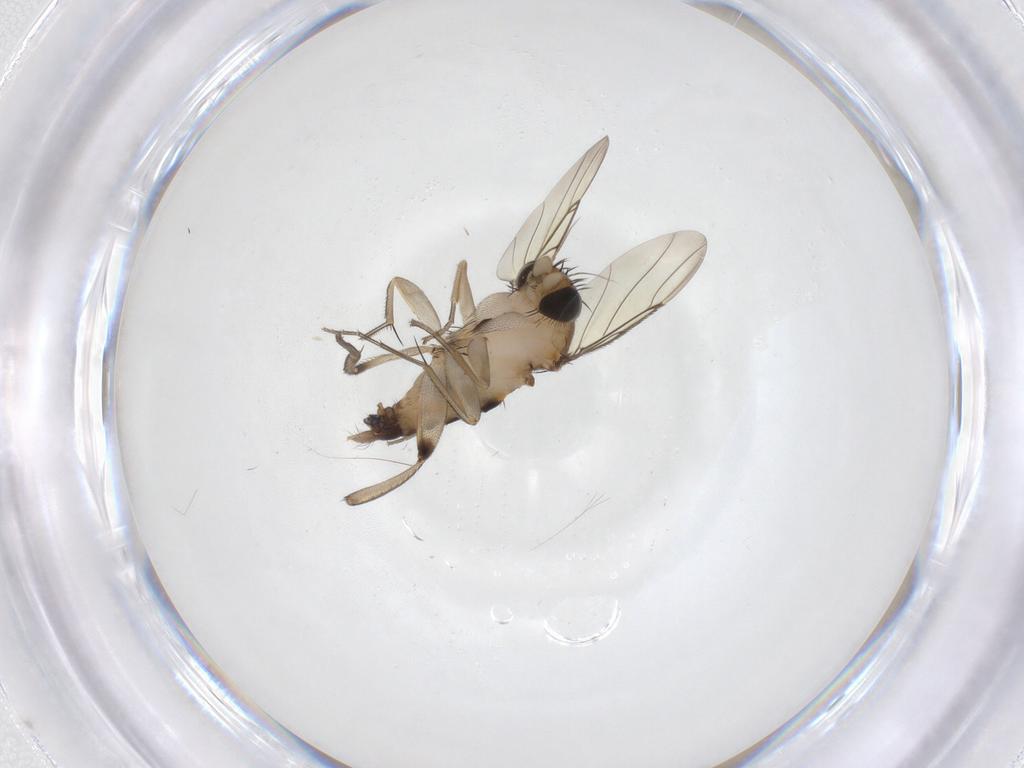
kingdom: Animalia
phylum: Arthropoda
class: Insecta
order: Diptera
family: Phoridae
